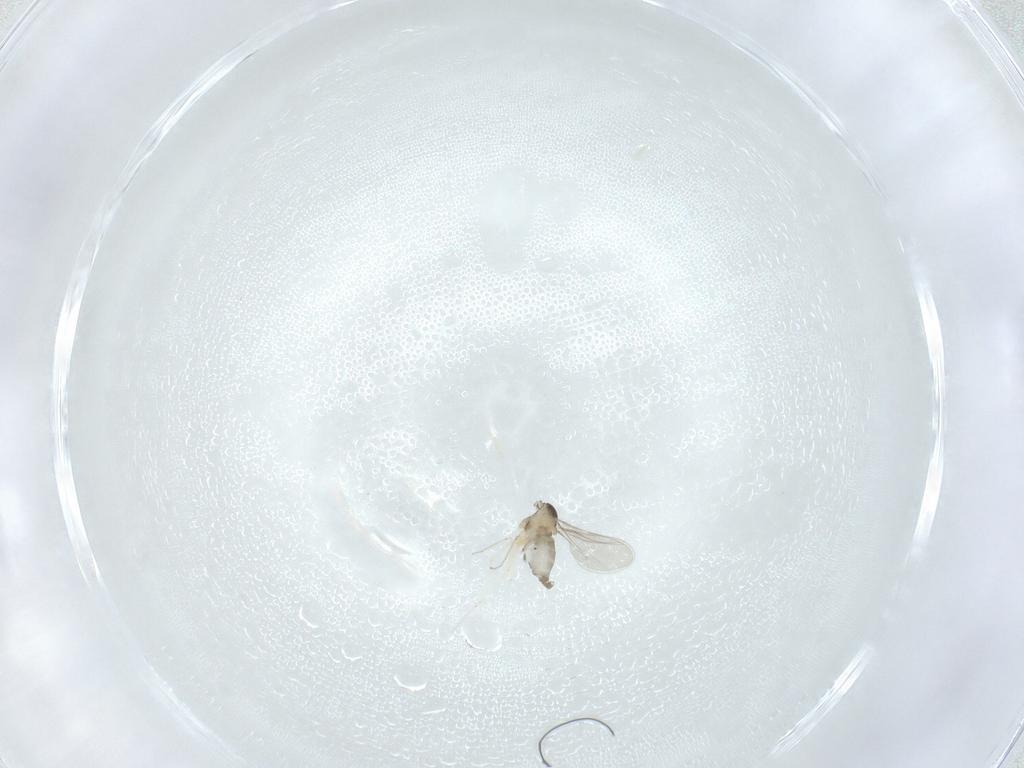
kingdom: Animalia
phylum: Arthropoda
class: Insecta
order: Diptera
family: Cecidomyiidae
